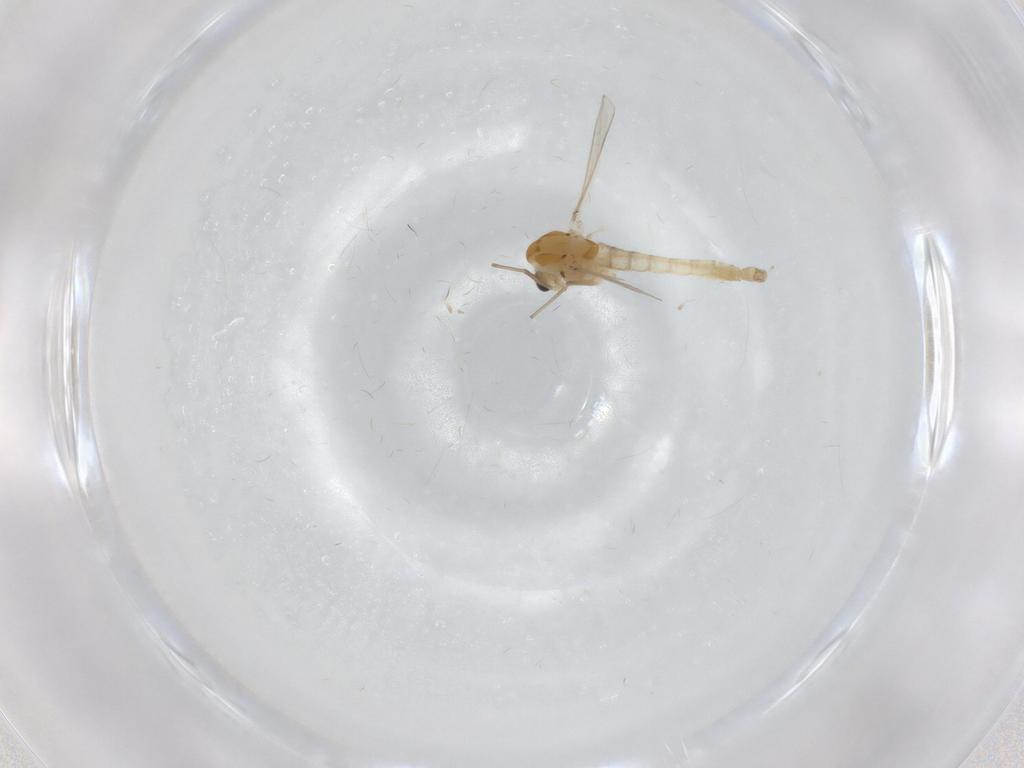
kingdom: Animalia
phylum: Arthropoda
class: Insecta
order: Diptera
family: Chironomidae
